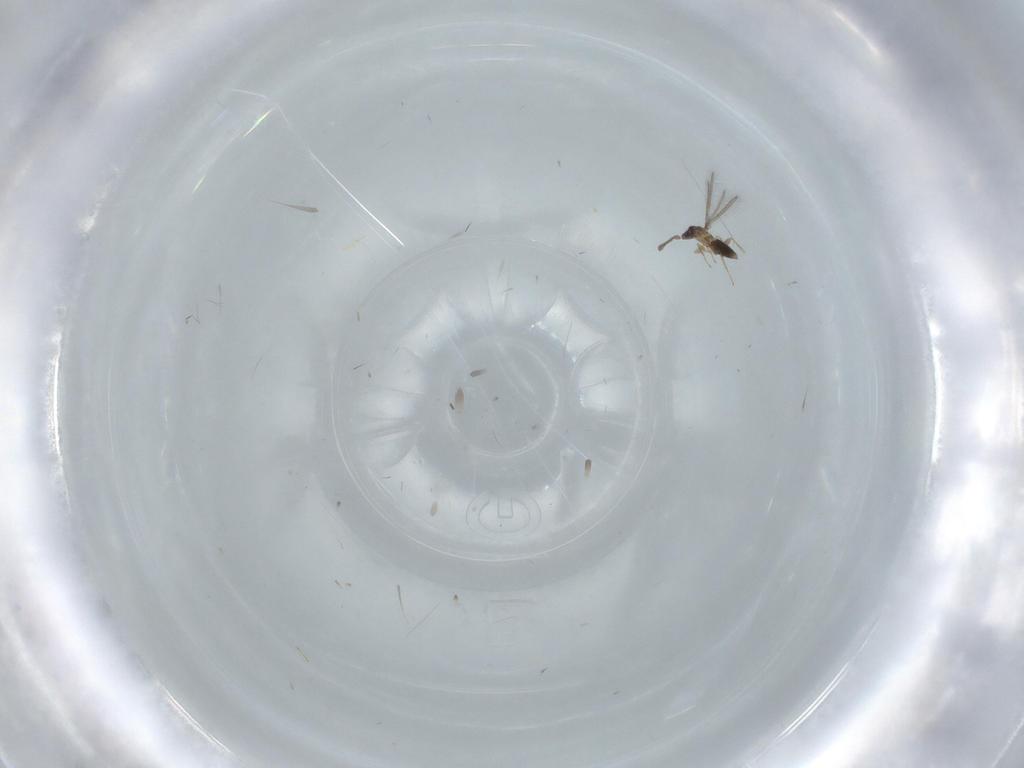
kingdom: Animalia
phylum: Arthropoda
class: Insecta
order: Hymenoptera
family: Mymaridae
